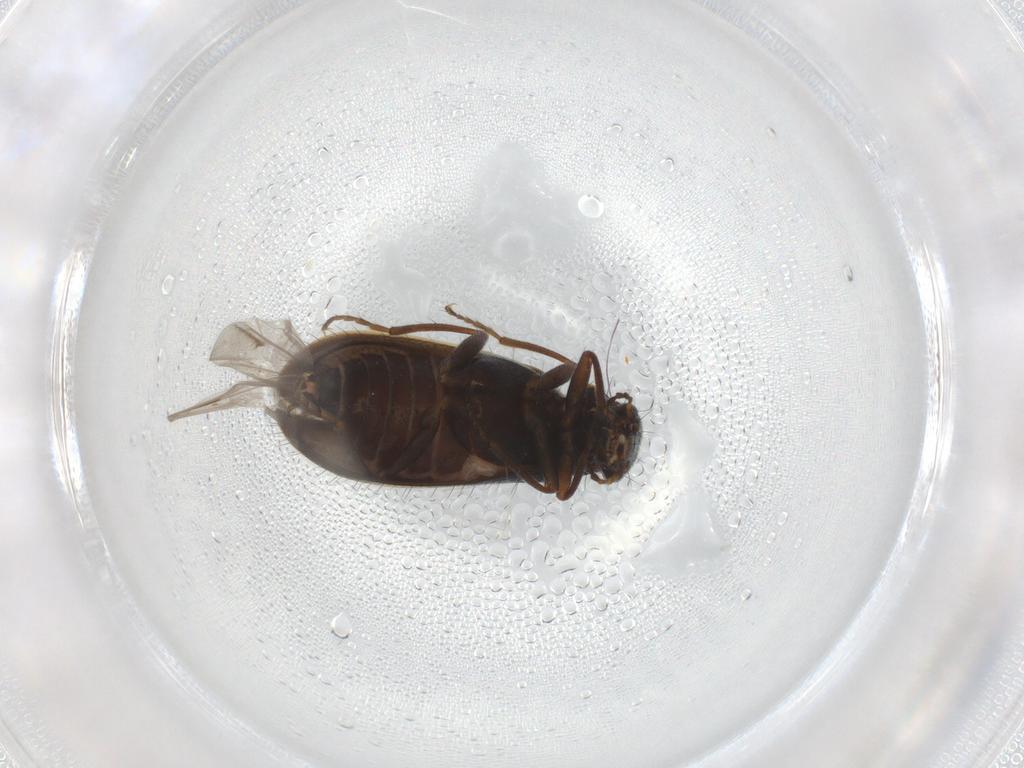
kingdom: Animalia
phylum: Arthropoda
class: Insecta
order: Coleoptera
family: Melyridae
